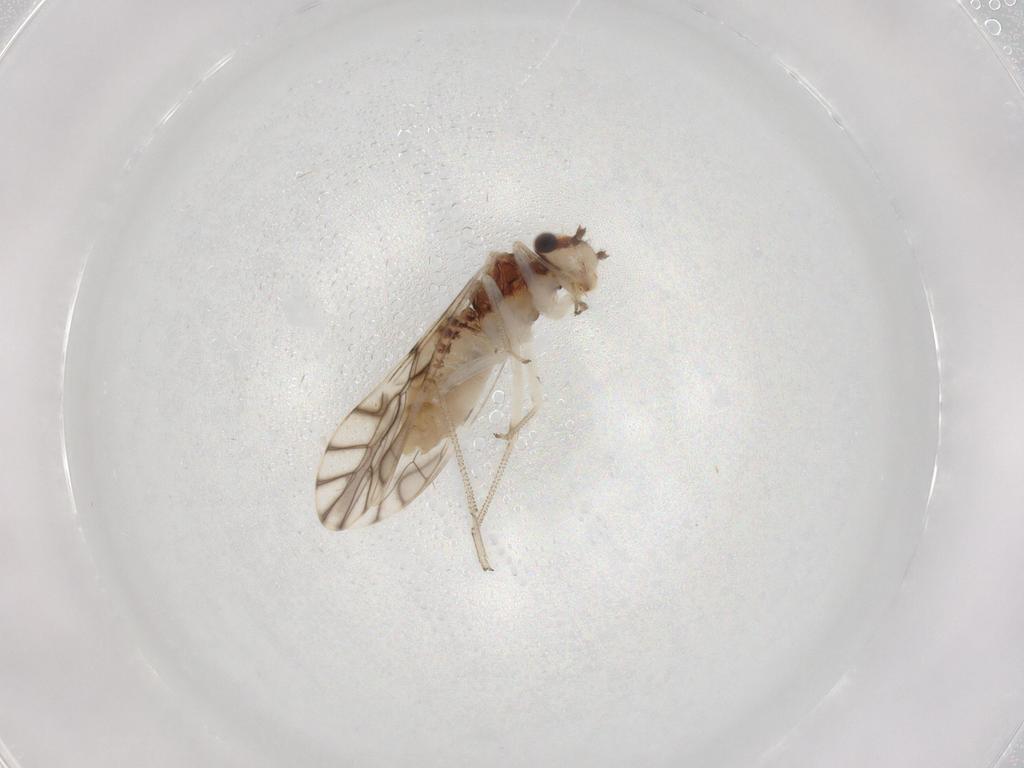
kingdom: Animalia
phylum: Arthropoda
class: Insecta
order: Psocodea
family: Caeciliusidae
